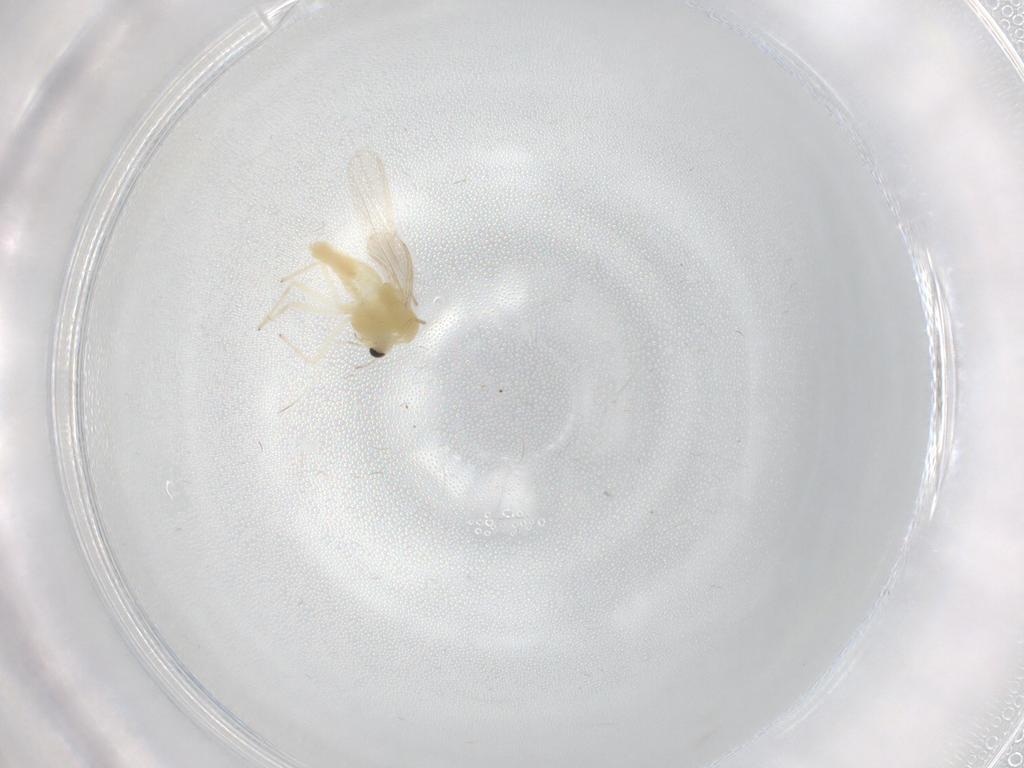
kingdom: Animalia
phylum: Arthropoda
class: Insecta
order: Diptera
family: Chironomidae
